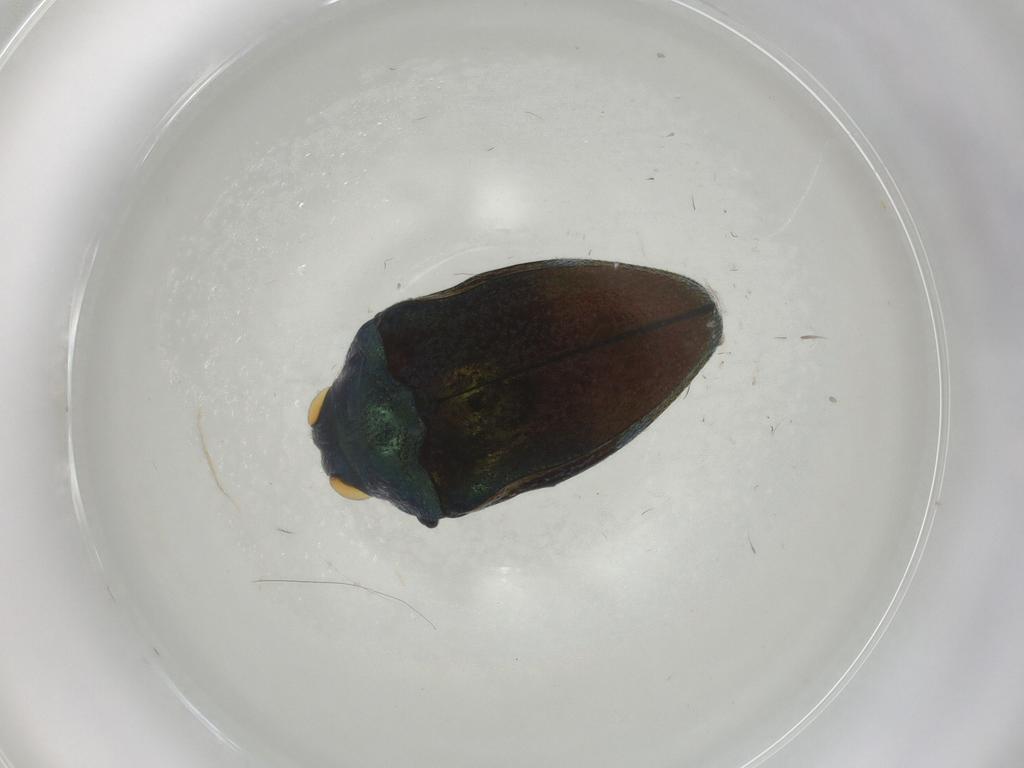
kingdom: Animalia
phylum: Arthropoda
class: Insecta
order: Coleoptera
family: Buprestidae
